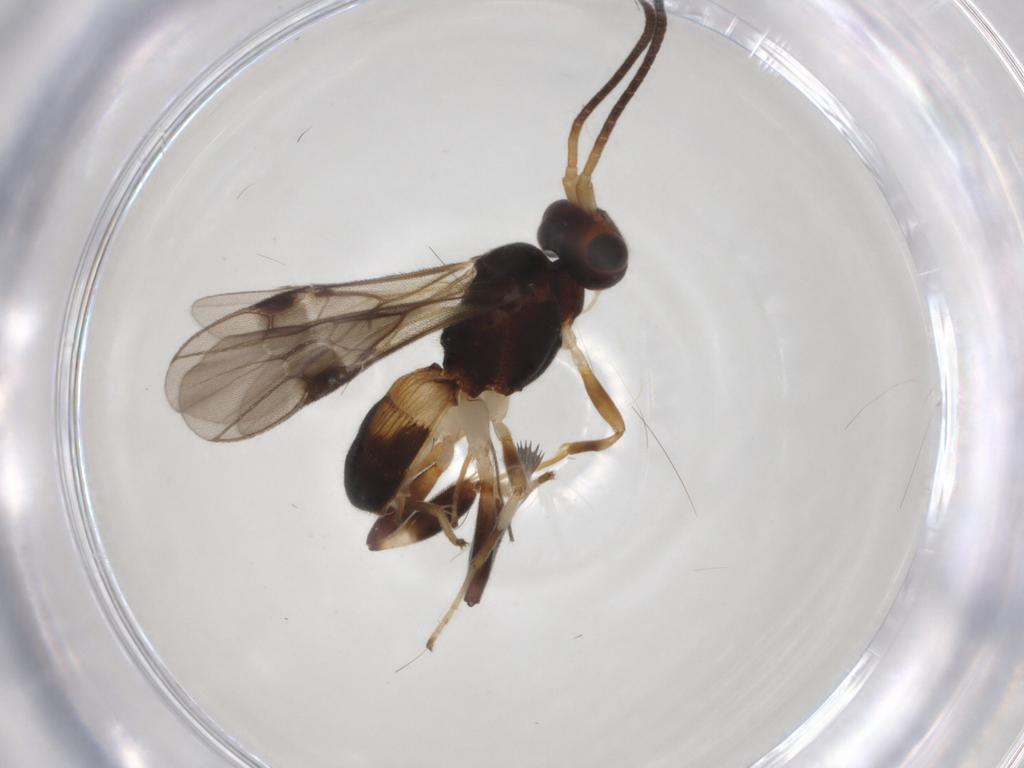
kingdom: Animalia
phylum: Arthropoda
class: Insecta
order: Hymenoptera
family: Braconidae
